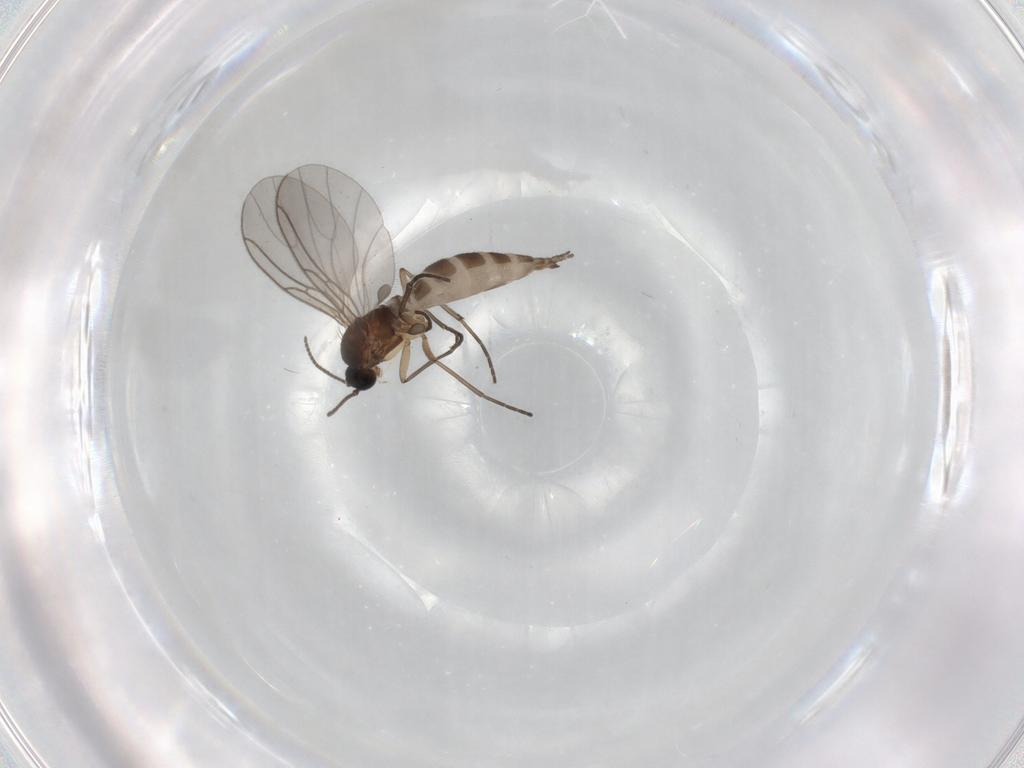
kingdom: Animalia
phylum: Arthropoda
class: Insecta
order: Diptera
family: Sciaridae
